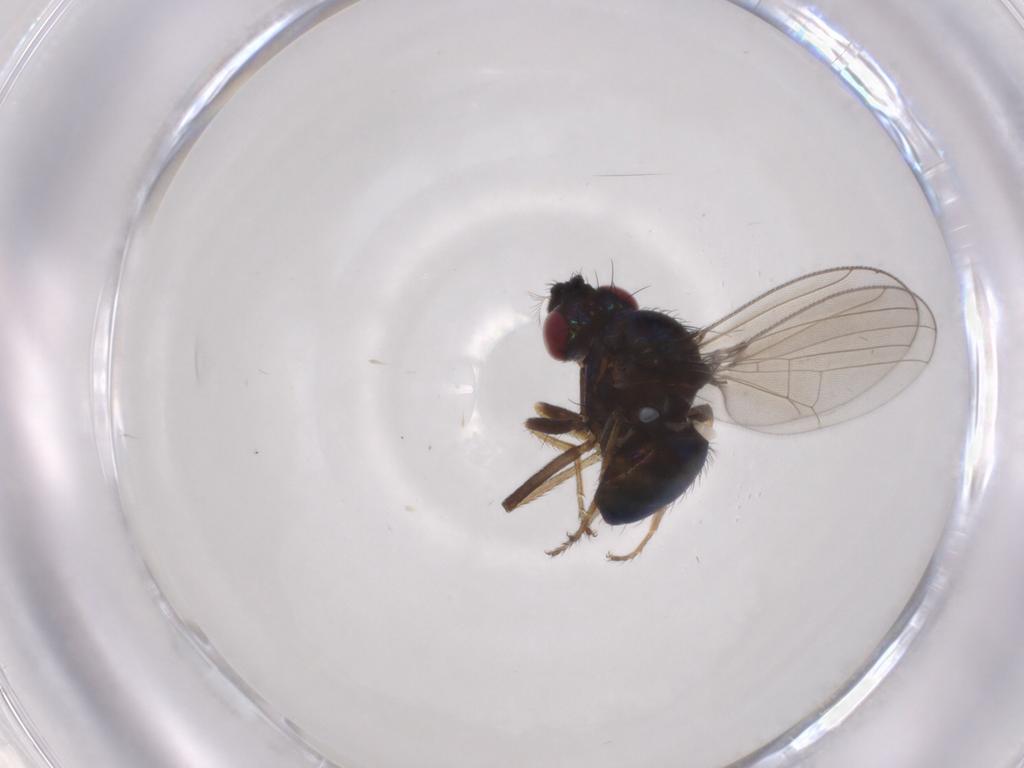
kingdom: Animalia
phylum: Arthropoda
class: Insecta
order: Diptera
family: Ephydridae
